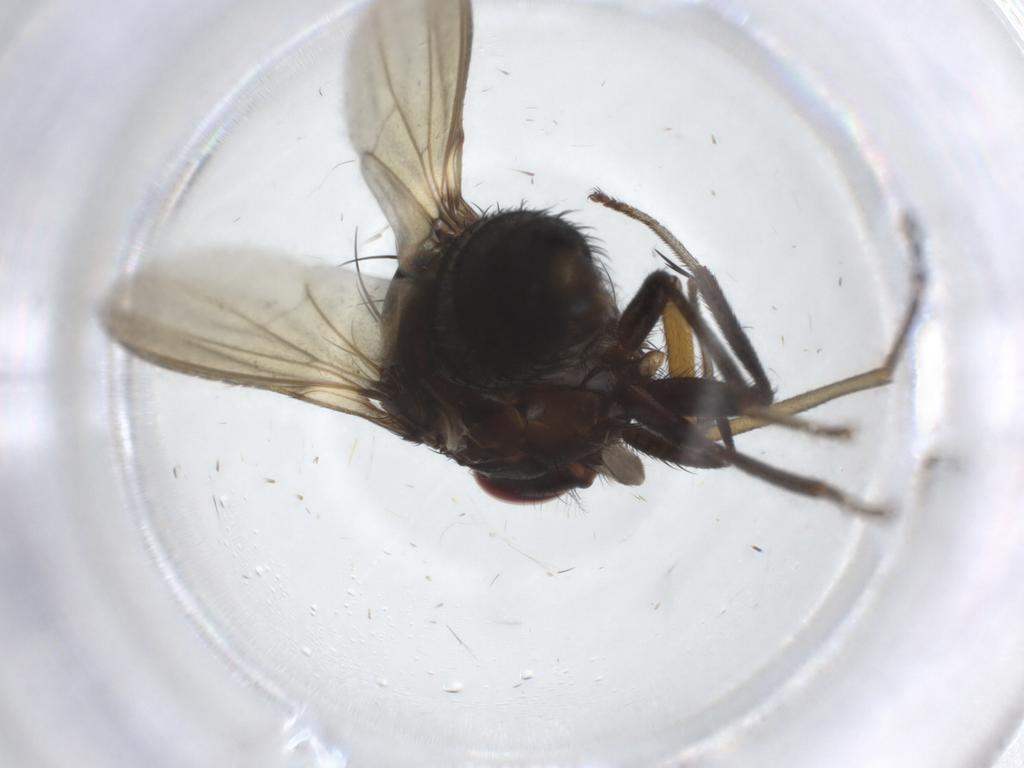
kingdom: Animalia
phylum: Arthropoda
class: Insecta
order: Diptera
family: Rhagionidae
